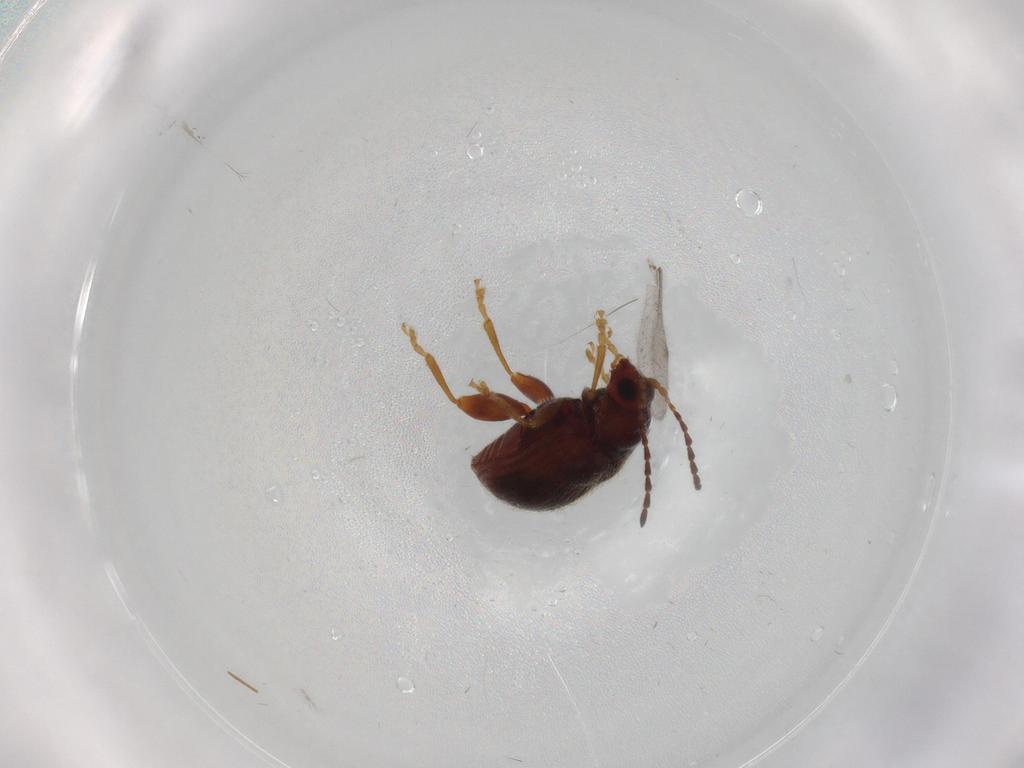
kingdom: Animalia
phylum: Arthropoda
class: Insecta
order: Coleoptera
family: Chrysomelidae
